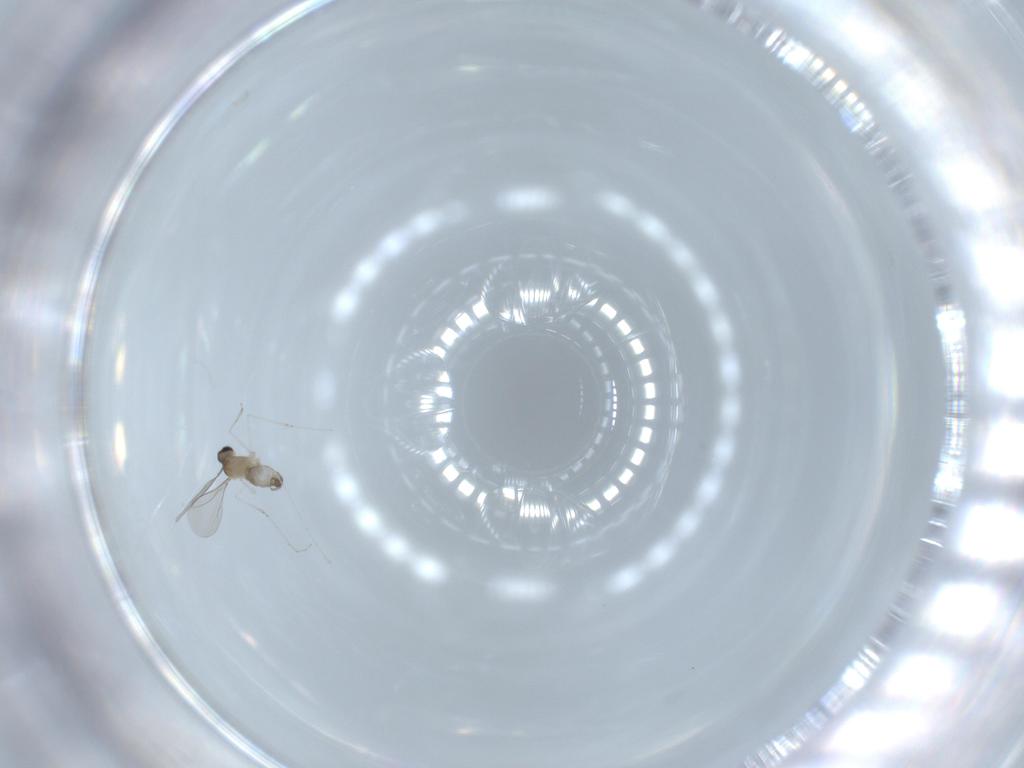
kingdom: Animalia
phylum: Arthropoda
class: Insecta
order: Diptera
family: Cecidomyiidae
